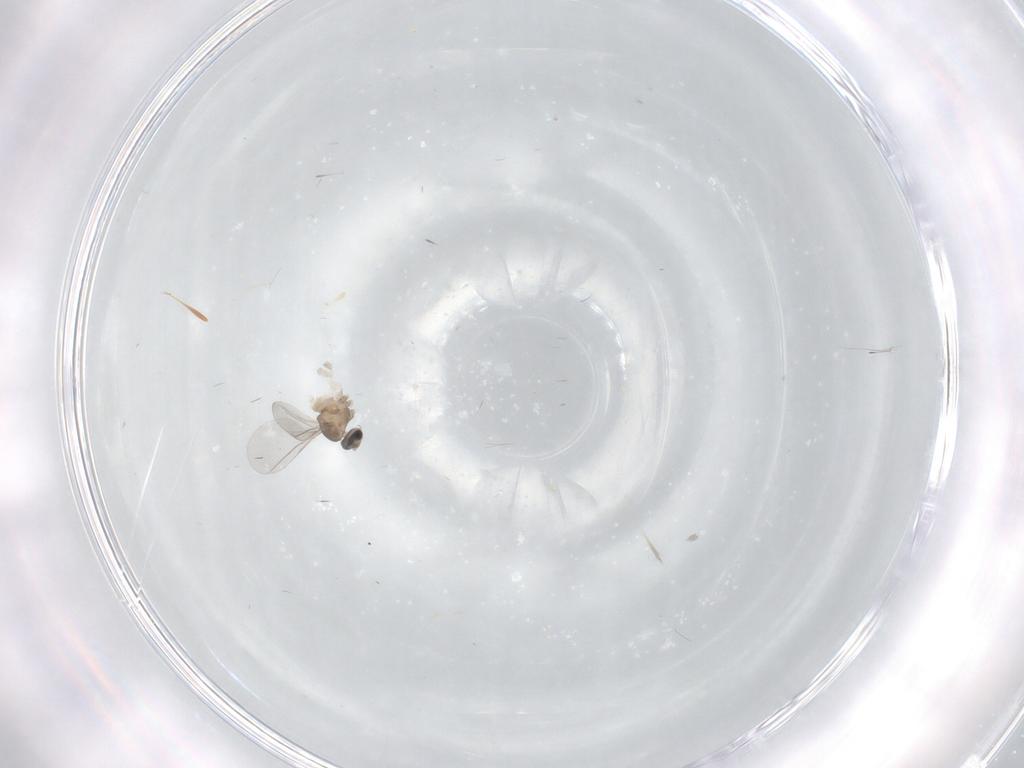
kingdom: Animalia
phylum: Arthropoda
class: Insecta
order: Diptera
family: Cecidomyiidae
